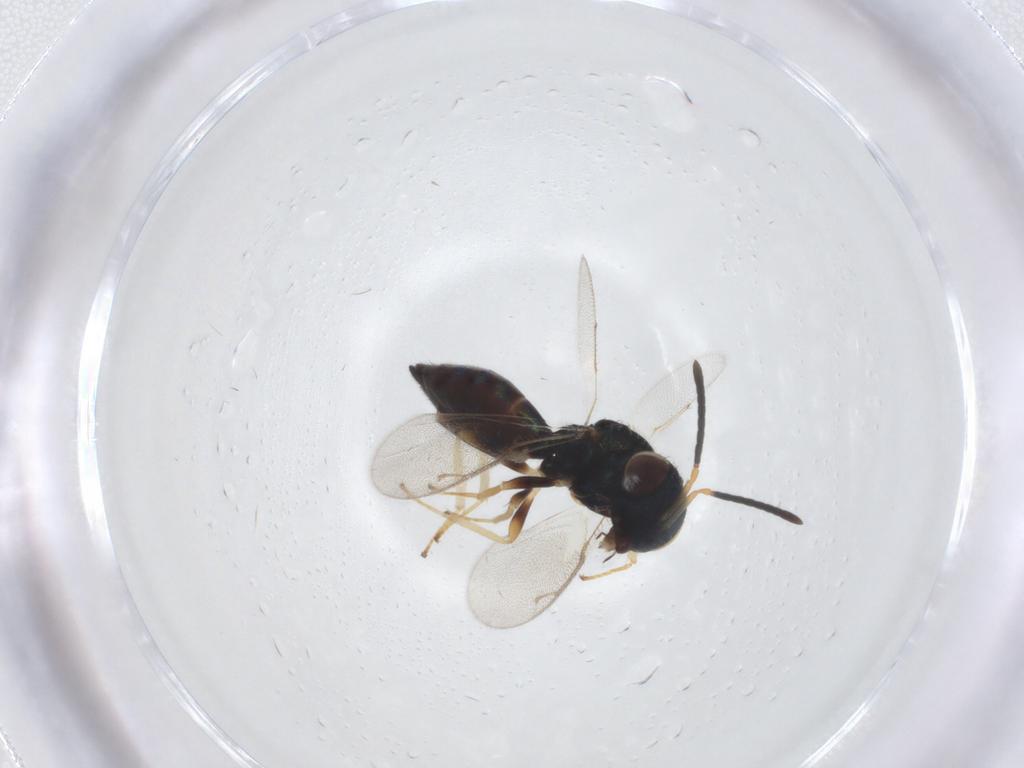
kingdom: Animalia
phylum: Arthropoda
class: Insecta
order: Hymenoptera
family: Pteromalidae
